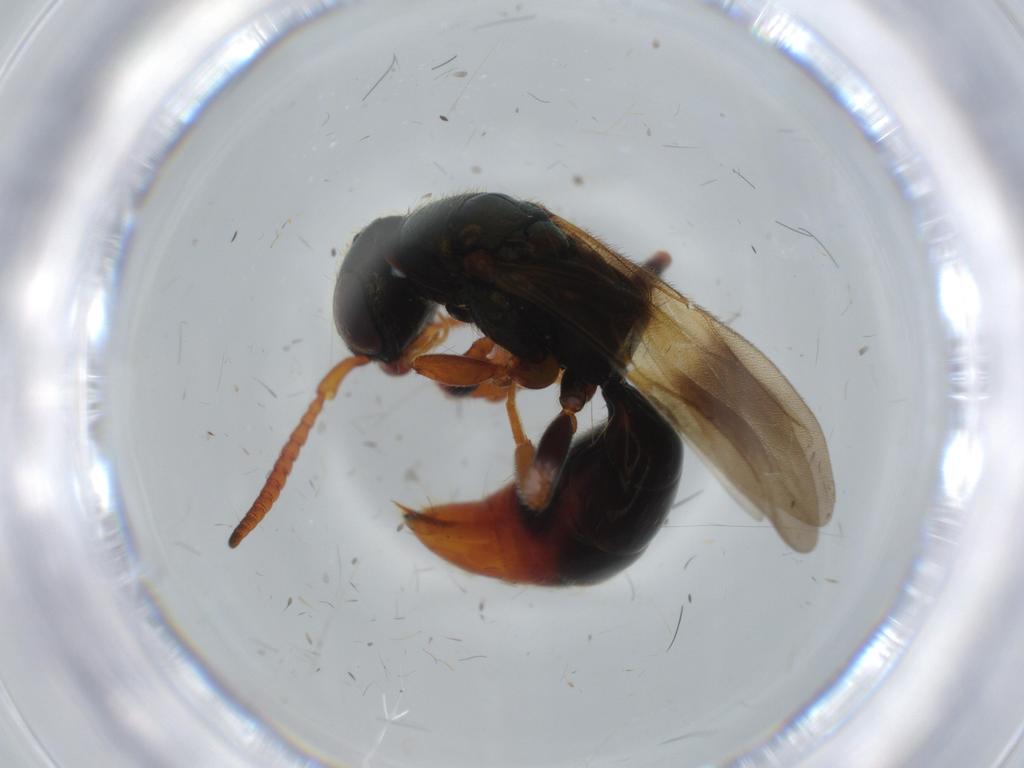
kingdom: Animalia
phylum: Arthropoda
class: Insecta
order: Hymenoptera
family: Bethylidae
